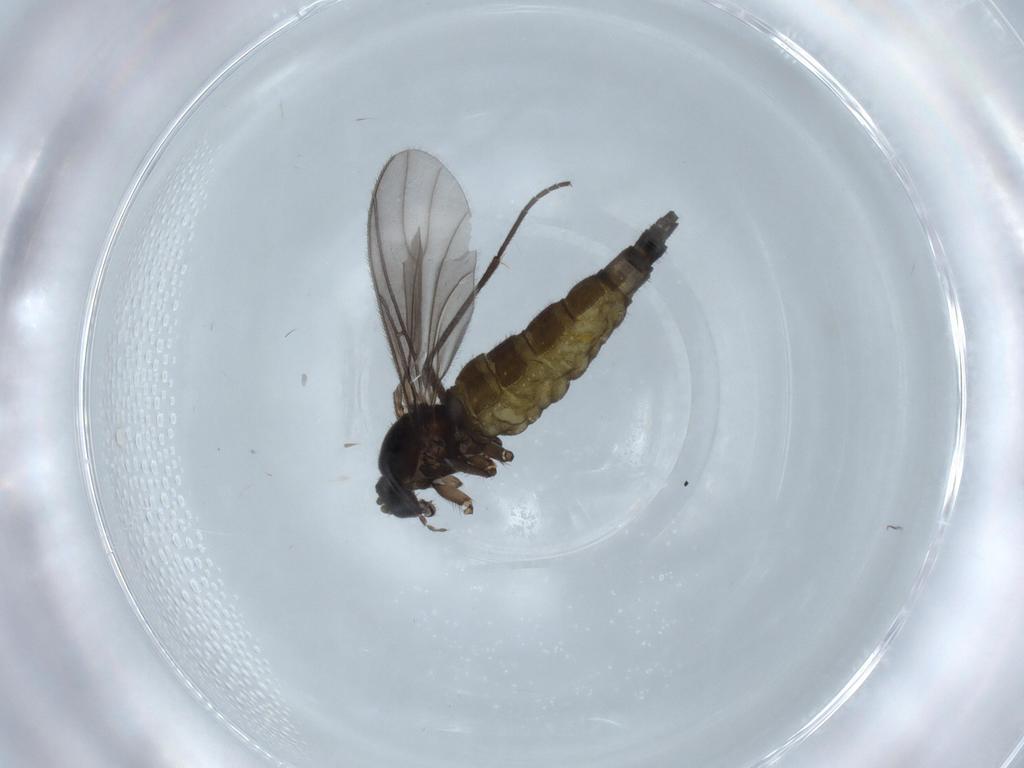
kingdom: Animalia
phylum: Arthropoda
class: Insecta
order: Diptera
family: Sciaridae
